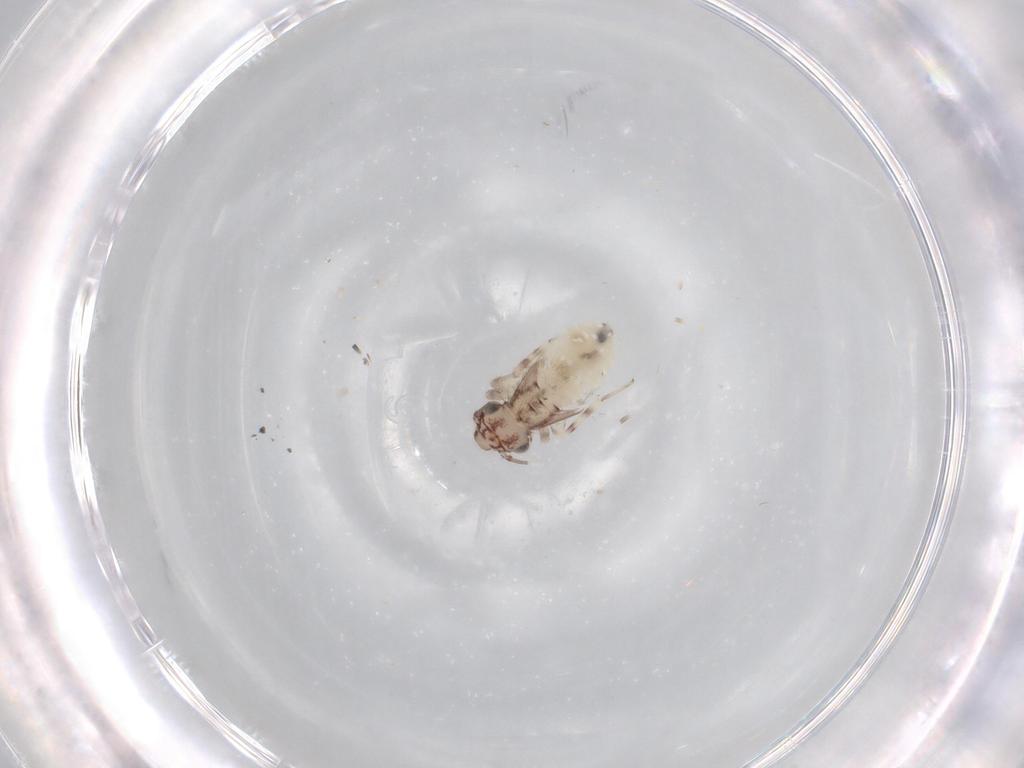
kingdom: Animalia
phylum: Arthropoda
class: Insecta
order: Psocodea
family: Lepidopsocidae
